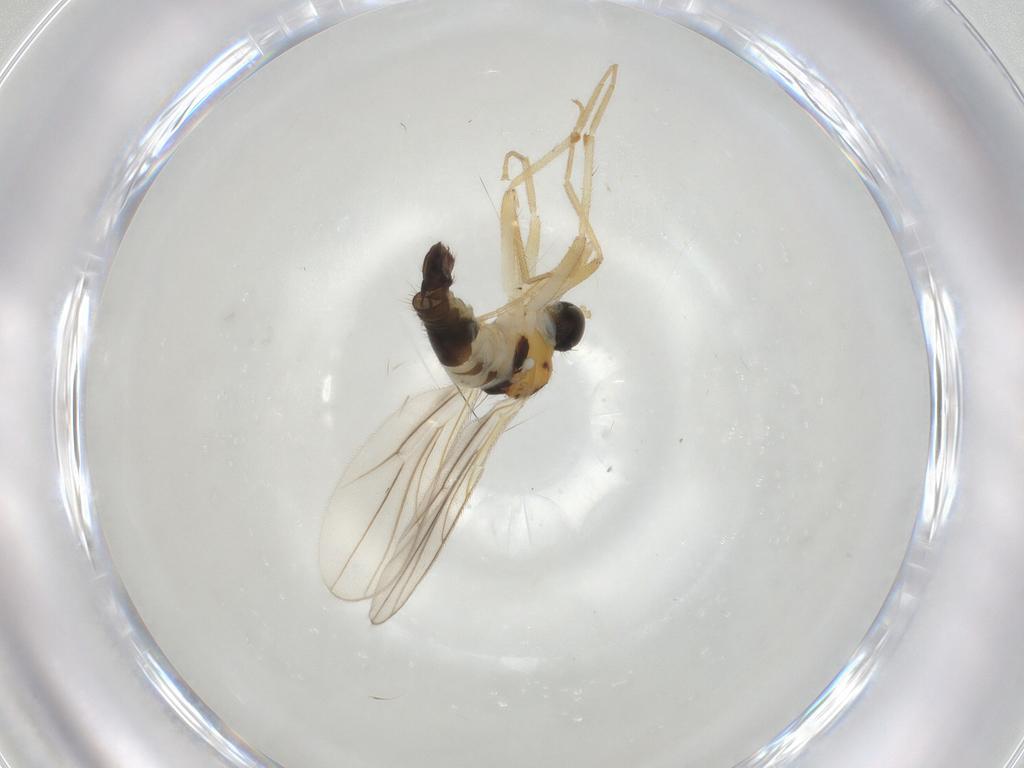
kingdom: Animalia
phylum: Arthropoda
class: Insecta
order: Diptera
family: Hybotidae
